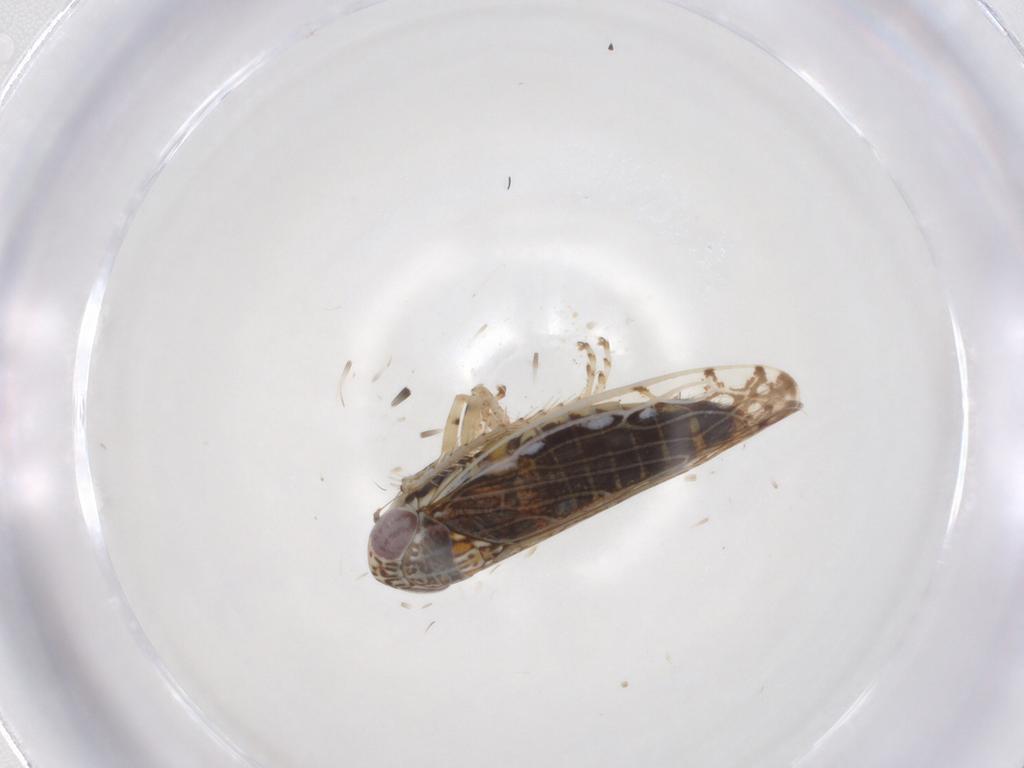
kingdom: Animalia
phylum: Arthropoda
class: Insecta
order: Hemiptera
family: Cicadellidae
